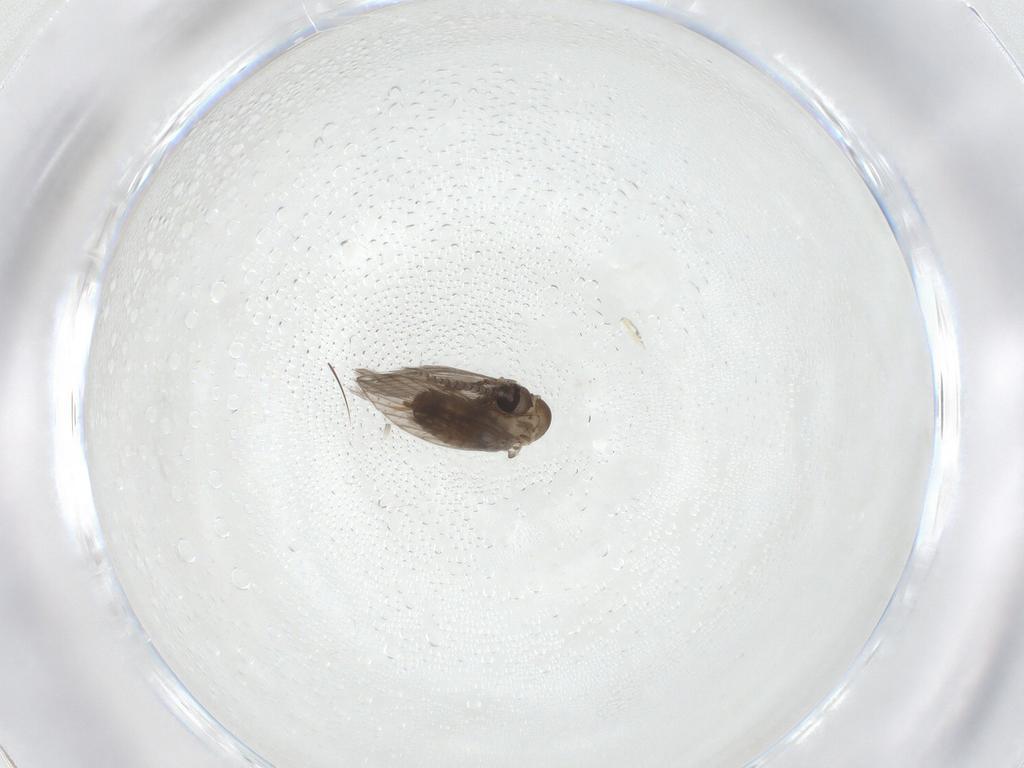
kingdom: Animalia
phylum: Arthropoda
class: Insecta
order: Diptera
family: Psychodidae
